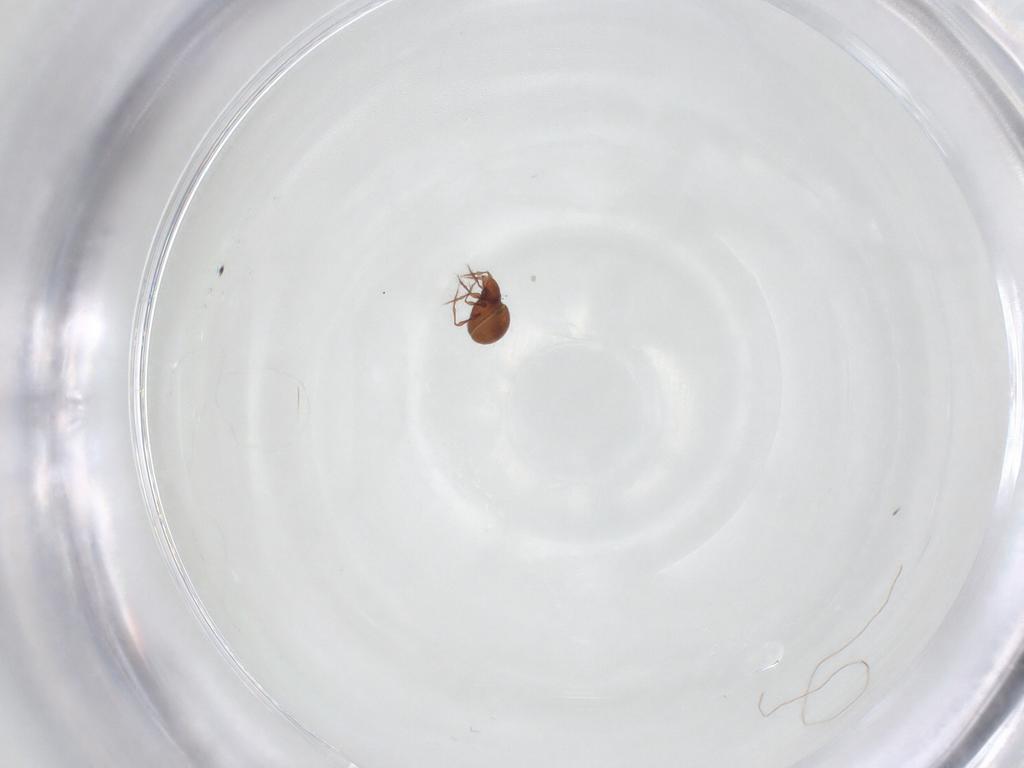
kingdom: Animalia
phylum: Arthropoda
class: Arachnida
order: Sarcoptiformes
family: Oppiidae
